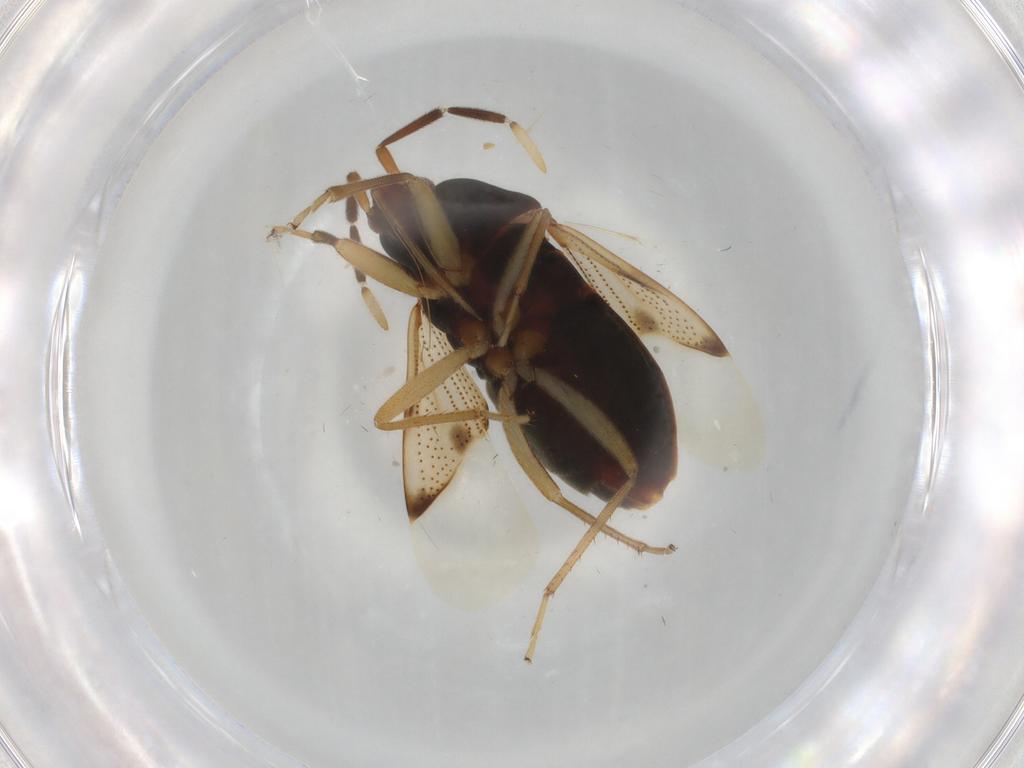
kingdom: Animalia
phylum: Arthropoda
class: Insecta
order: Hemiptera
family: Rhyparochromidae
